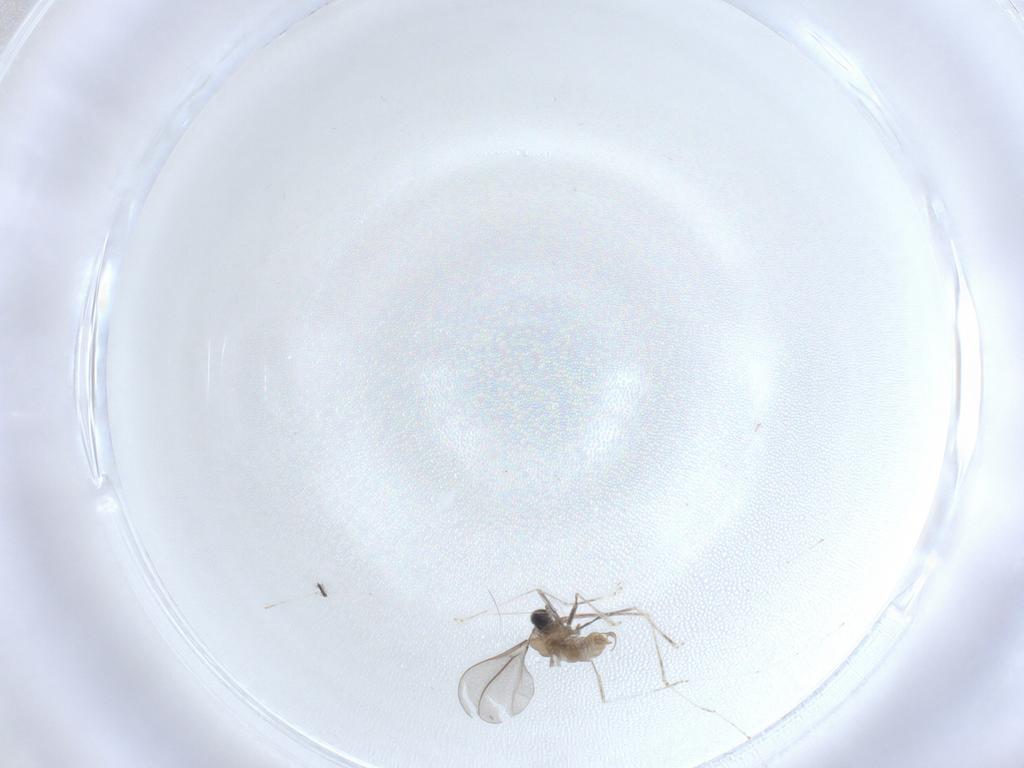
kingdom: Animalia
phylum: Arthropoda
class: Insecta
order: Diptera
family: Cecidomyiidae
